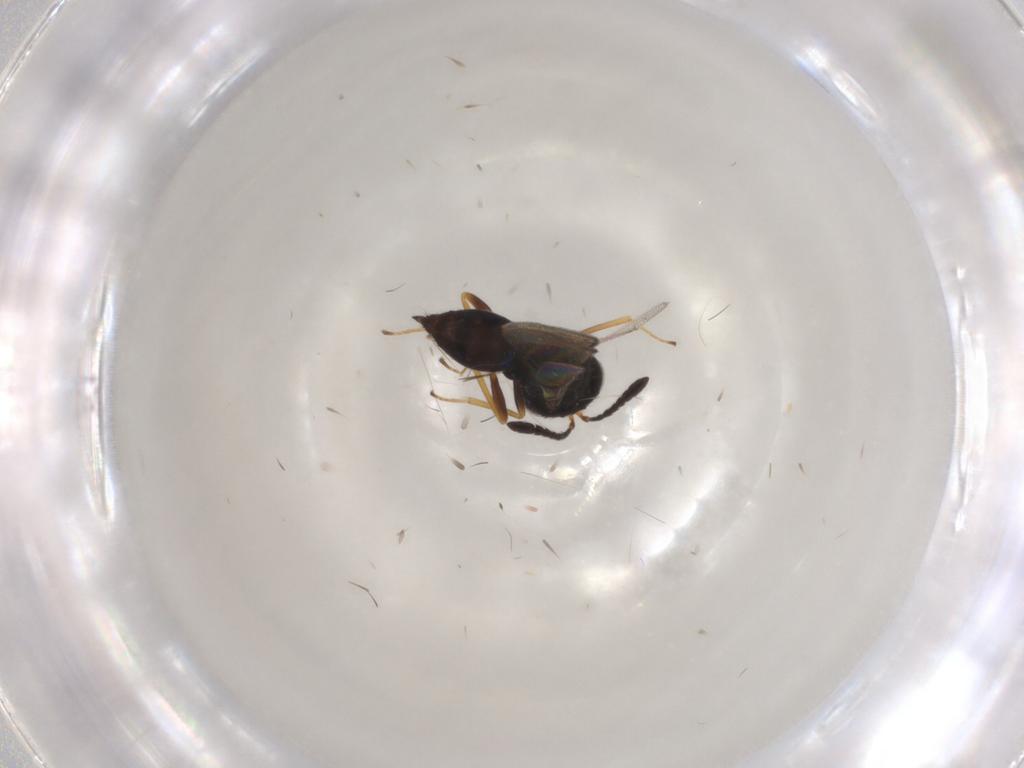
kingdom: Animalia
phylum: Arthropoda
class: Insecta
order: Hymenoptera
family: Pteromalidae
